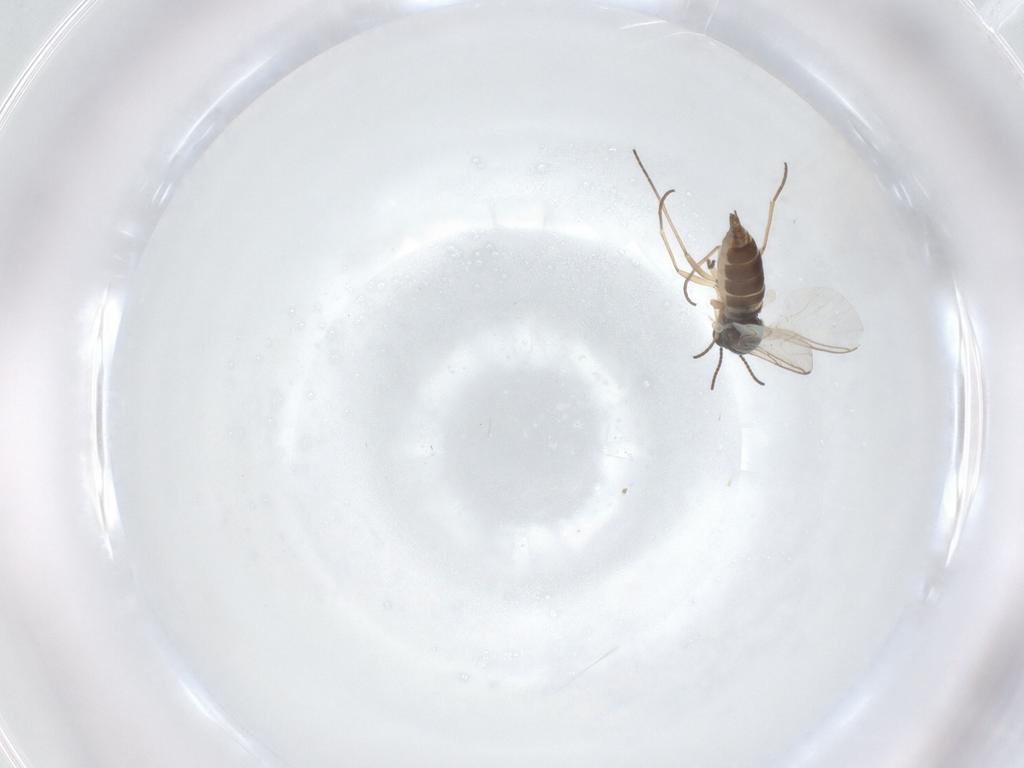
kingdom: Animalia
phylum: Arthropoda
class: Insecta
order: Diptera
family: Sciaridae
